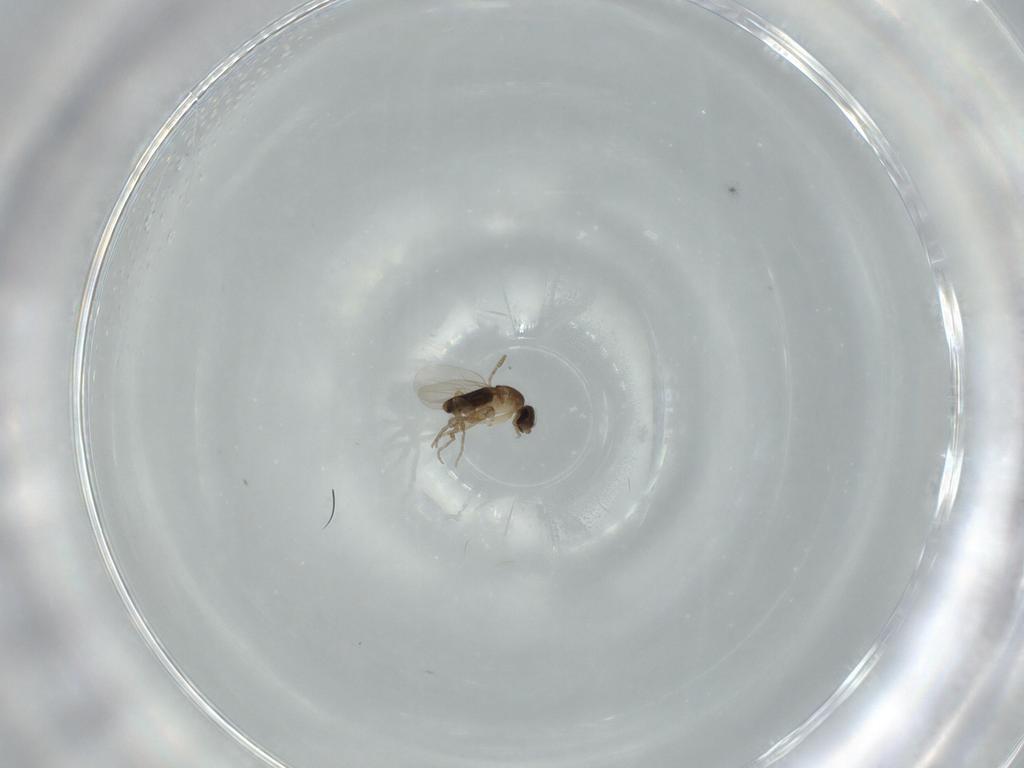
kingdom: Animalia
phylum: Arthropoda
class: Insecta
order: Diptera
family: Phoridae
